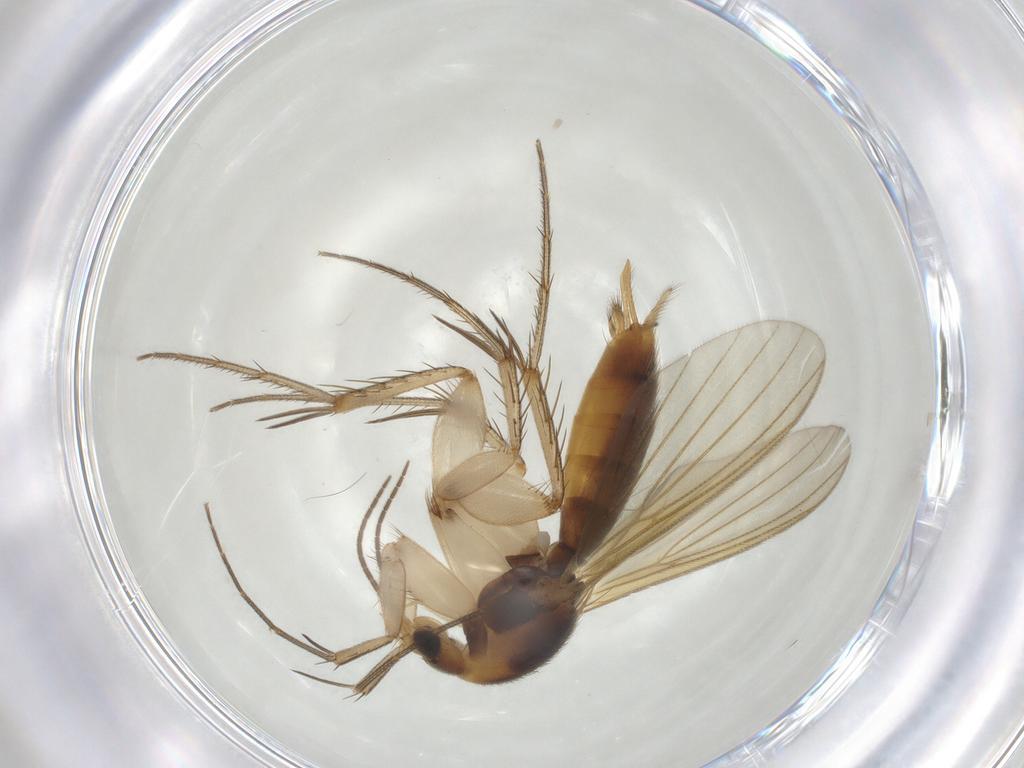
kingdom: Animalia
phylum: Arthropoda
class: Insecta
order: Diptera
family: Mycetophilidae
